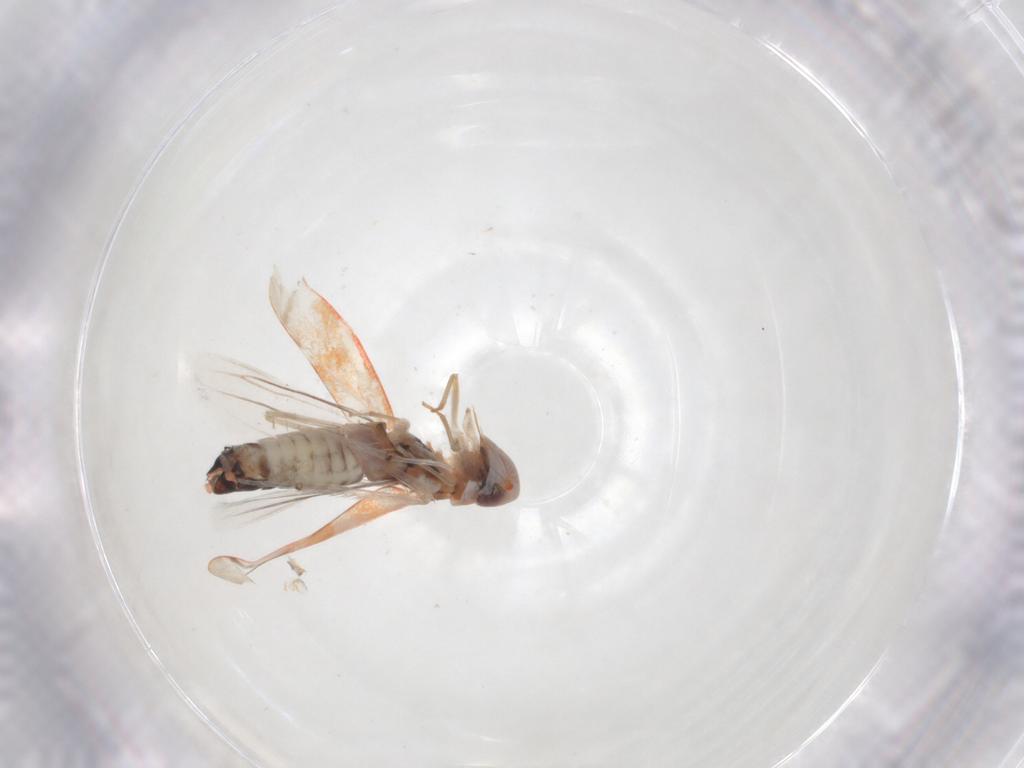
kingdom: Animalia
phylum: Arthropoda
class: Insecta
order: Hemiptera
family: Cicadellidae
